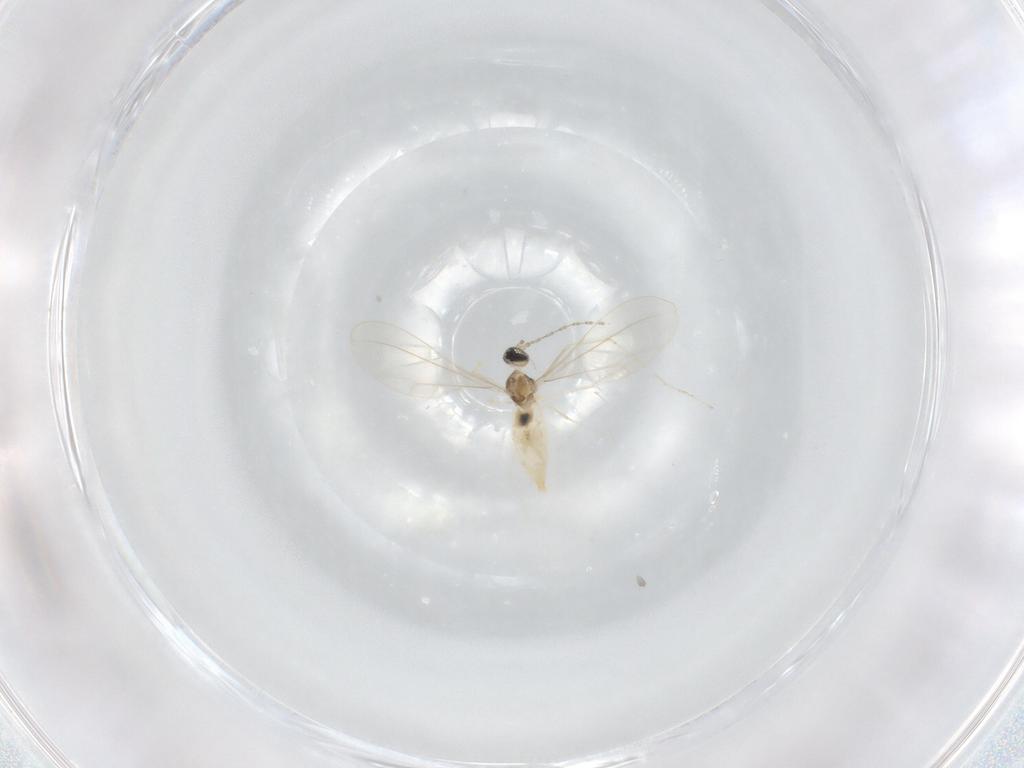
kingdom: Animalia
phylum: Arthropoda
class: Insecta
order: Diptera
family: Cecidomyiidae
